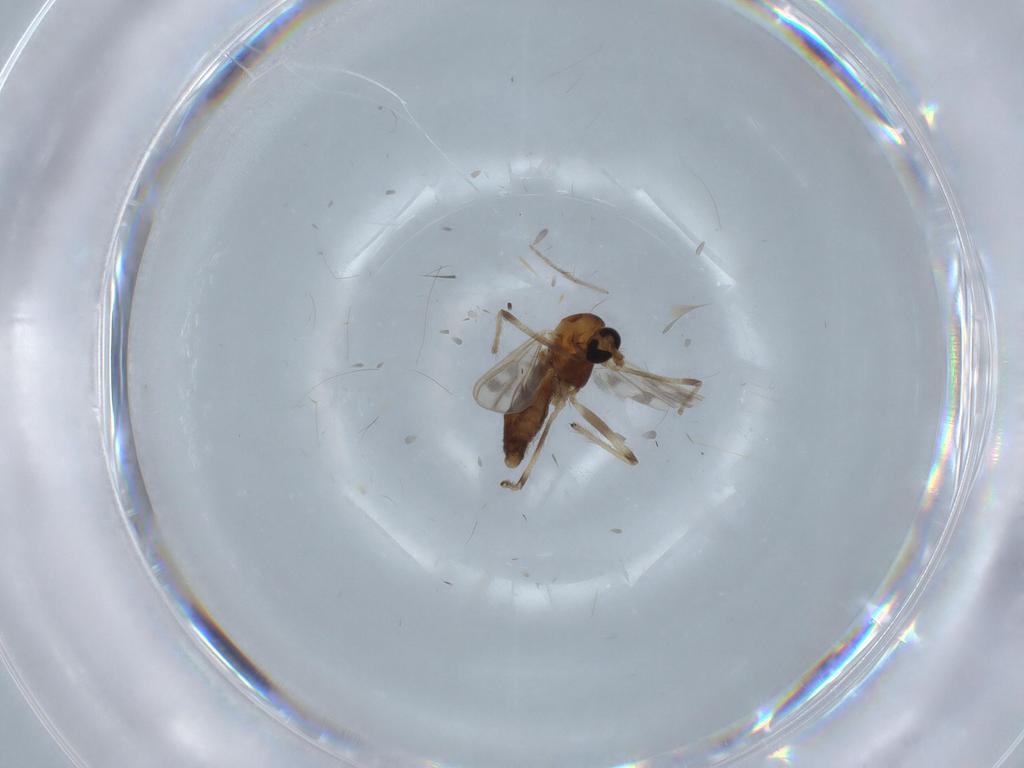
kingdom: Animalia
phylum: Arthropoda
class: Insecta
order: Diptera
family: Chironomidae
